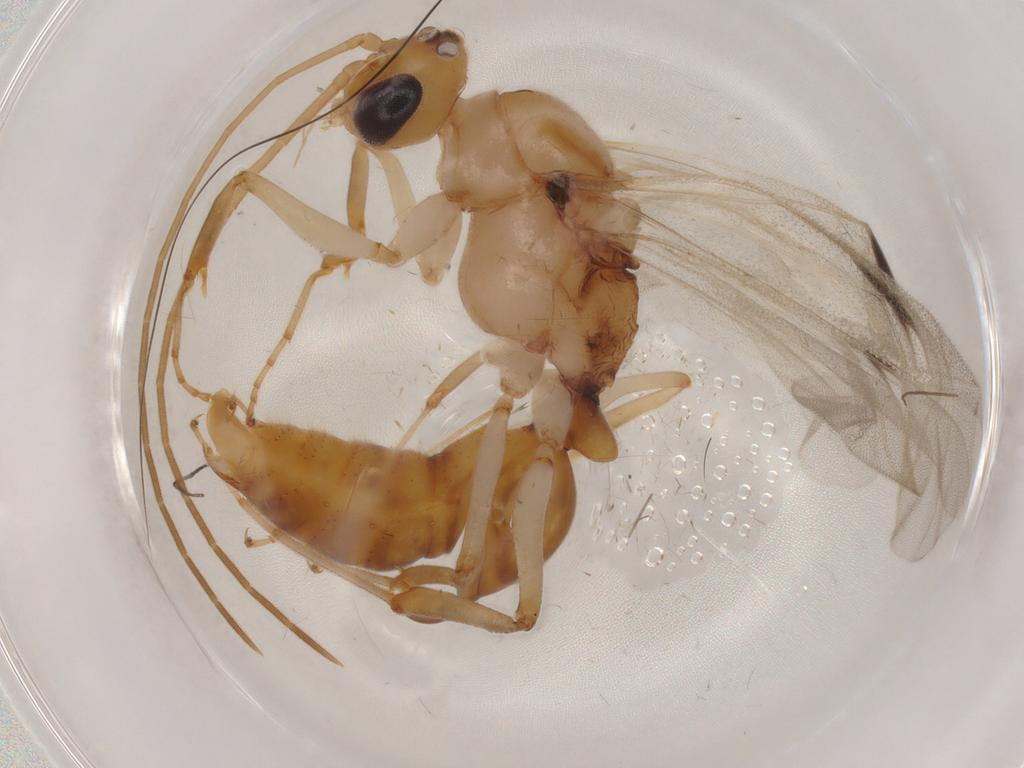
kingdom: Animalia
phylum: Arthropoda
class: Insecta
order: Hymenoptera
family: Formicidae
